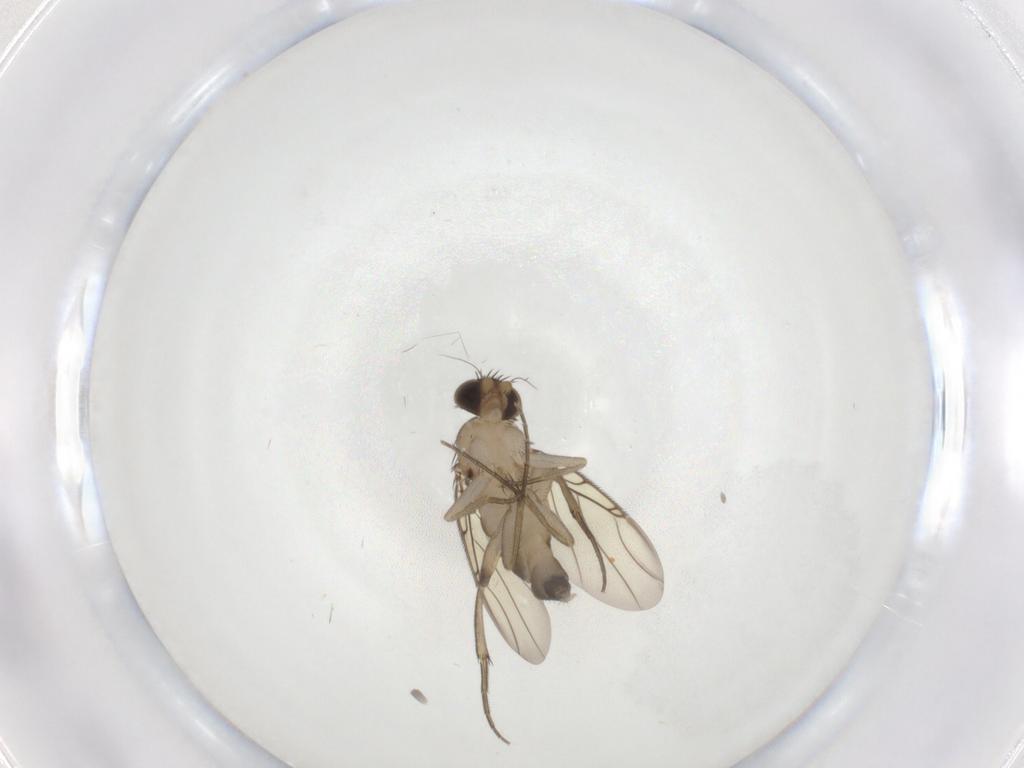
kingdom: Animalia
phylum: Arthropoda
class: Insecta
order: Diptera
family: Phoridae
